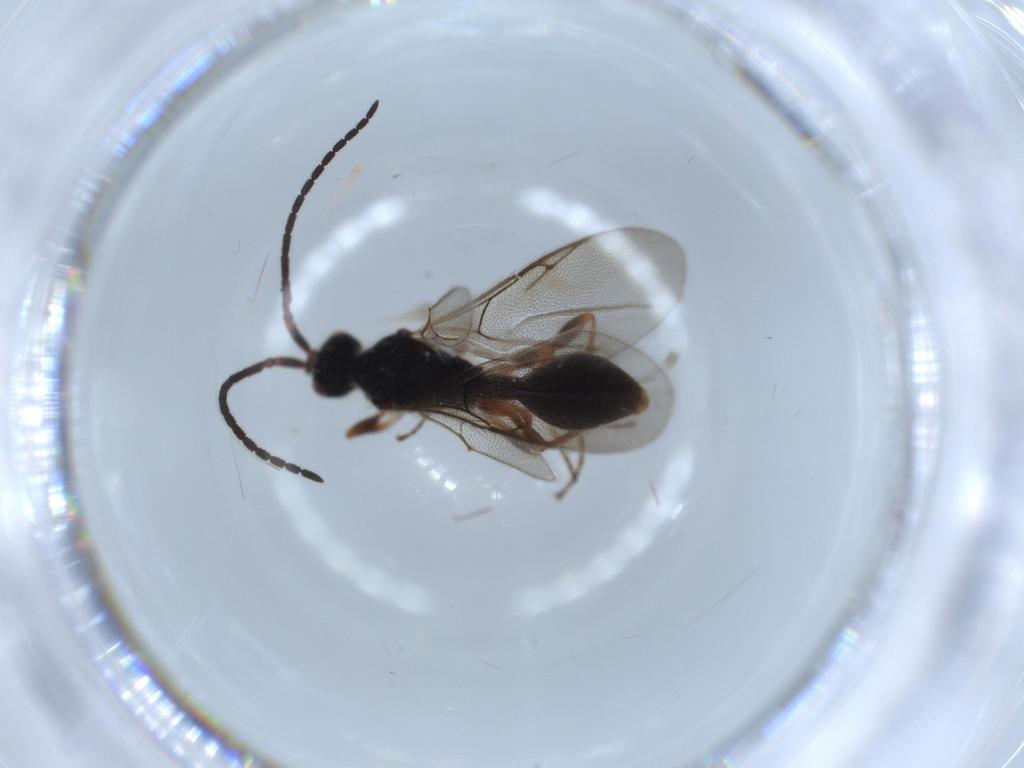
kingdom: Animalia
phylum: Arthropoda
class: Insecta
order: Hymenoptera
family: Diapriidae
